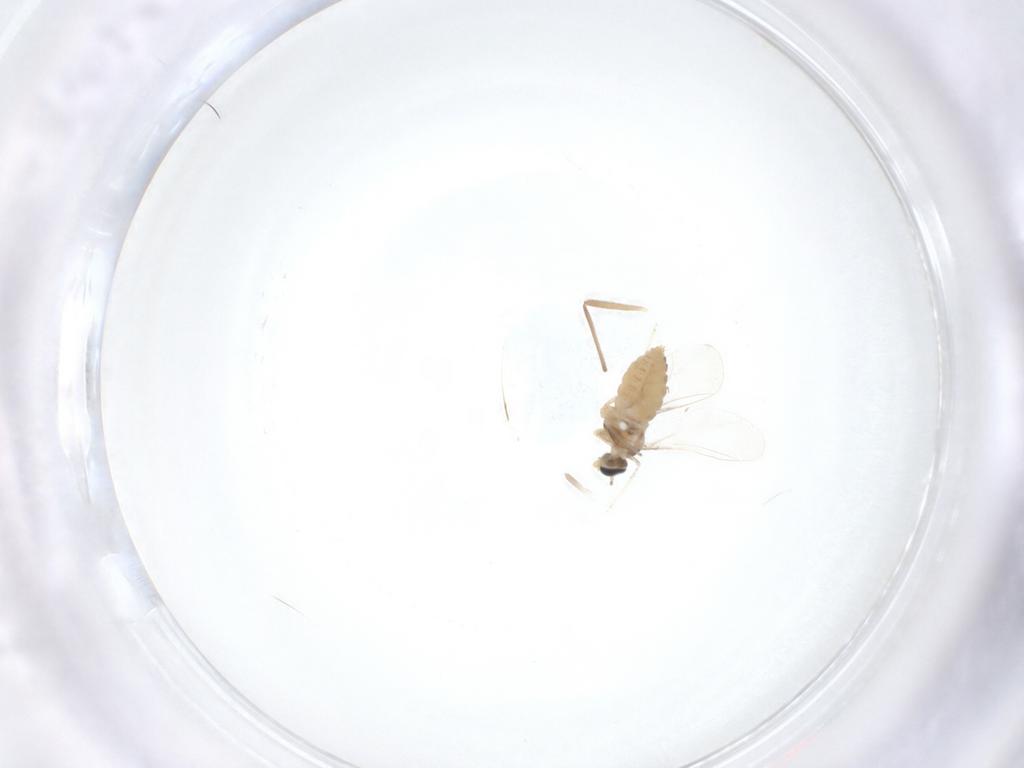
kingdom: Animalia
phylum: Arthropoda
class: Insecta
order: Diptera
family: Cecidomyiidae
